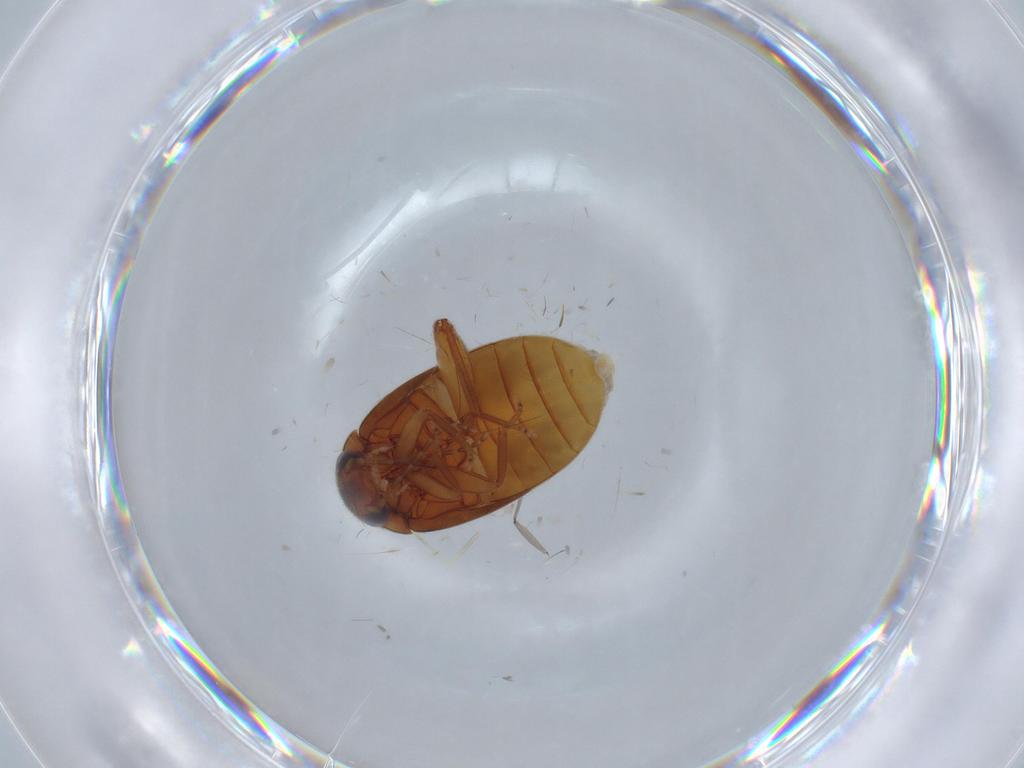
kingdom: Animalia
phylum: Arthropoda
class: Insecta
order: Coleoptera
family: Scirtidae
